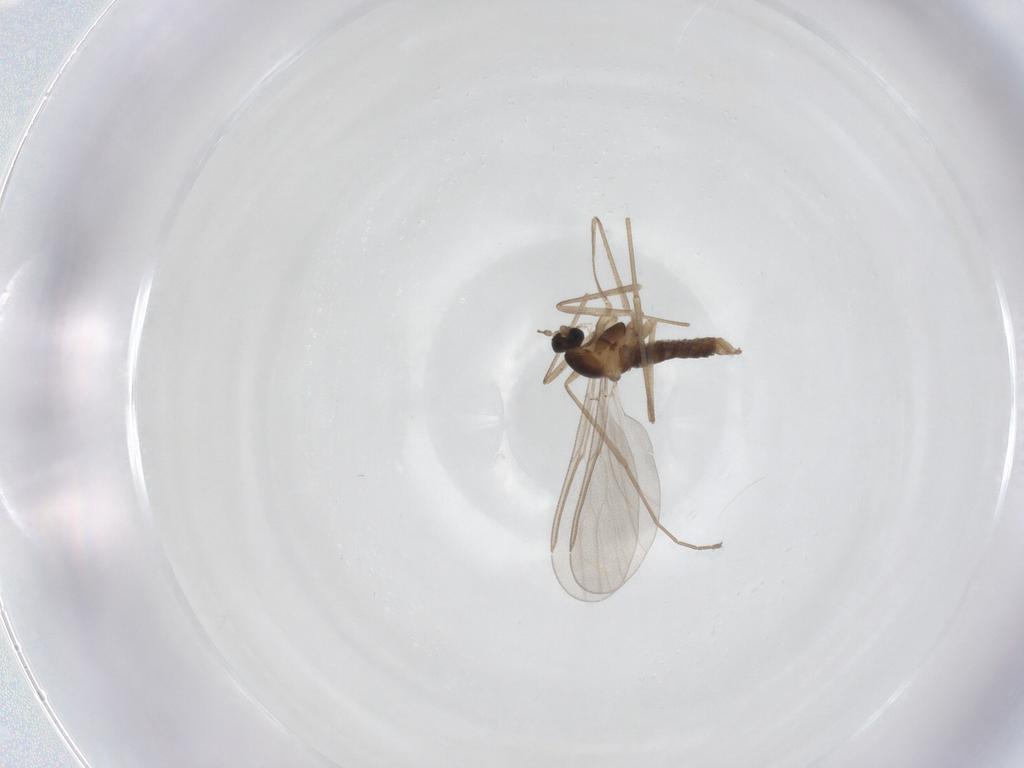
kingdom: Animalia
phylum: Arthropoda
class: Insecta
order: Diptera
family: Cecidomyiidae
